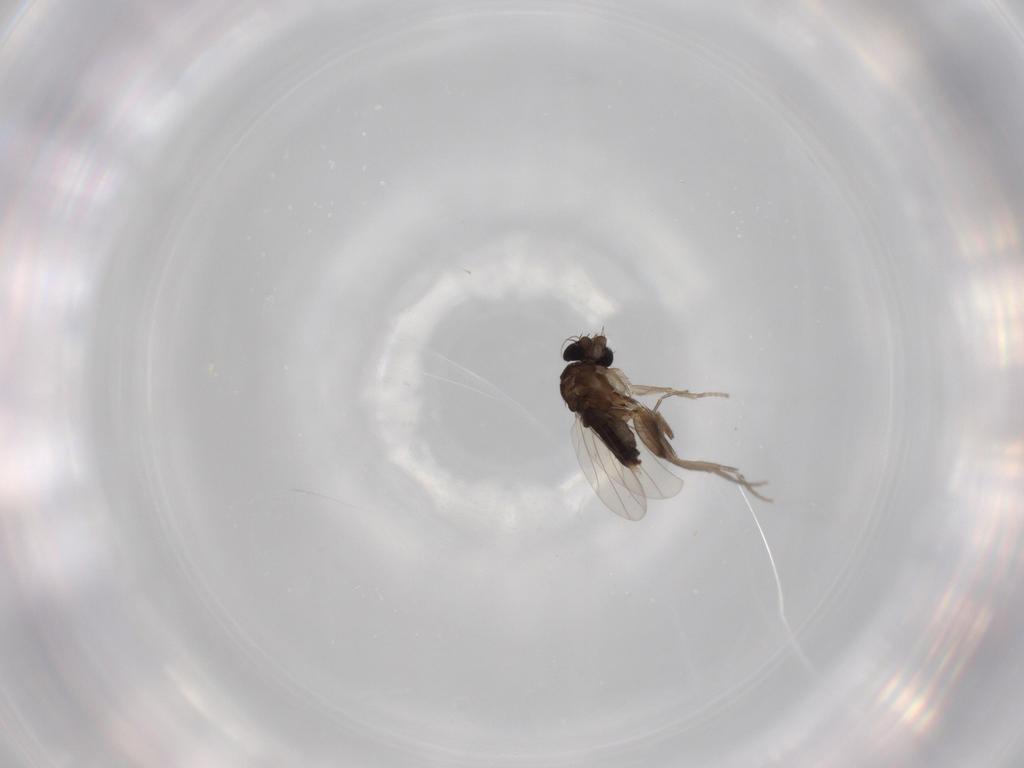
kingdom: Animalia
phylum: Arthropoda
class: Insecta
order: Diptera
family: Phoridae
